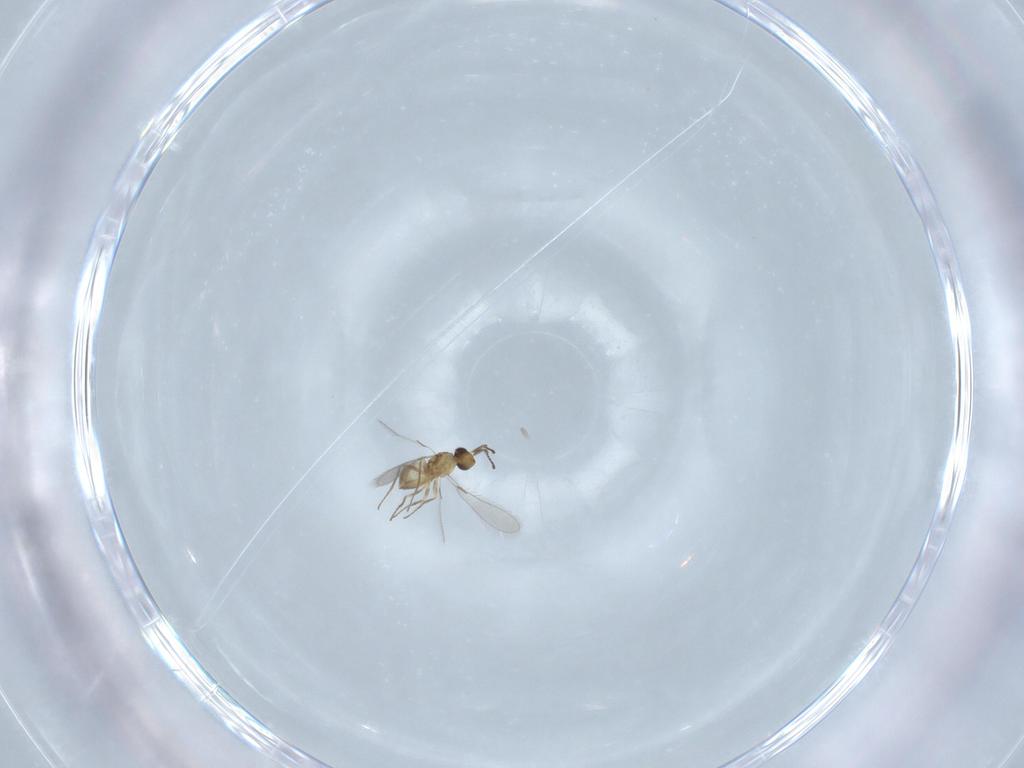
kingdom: Animalia
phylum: Arthropoda
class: Insecta
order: Hymenoptera
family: Mymaridae
